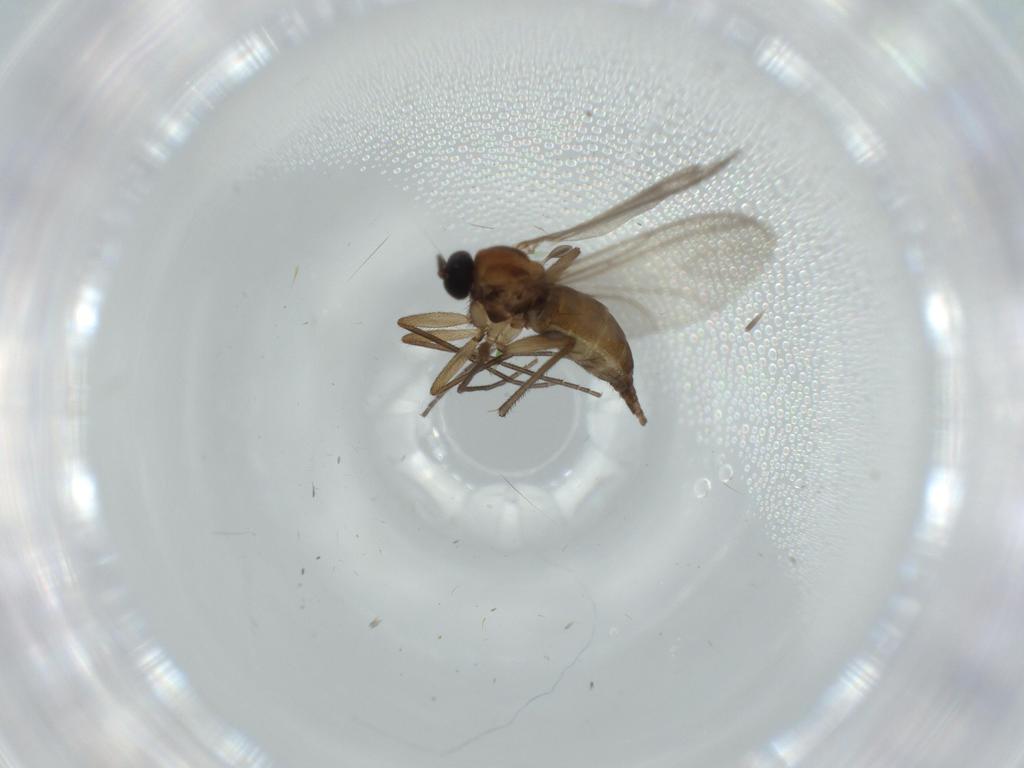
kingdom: Animalia
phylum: Arthropoda
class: Insecta
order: Diptera
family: Sciaridae
